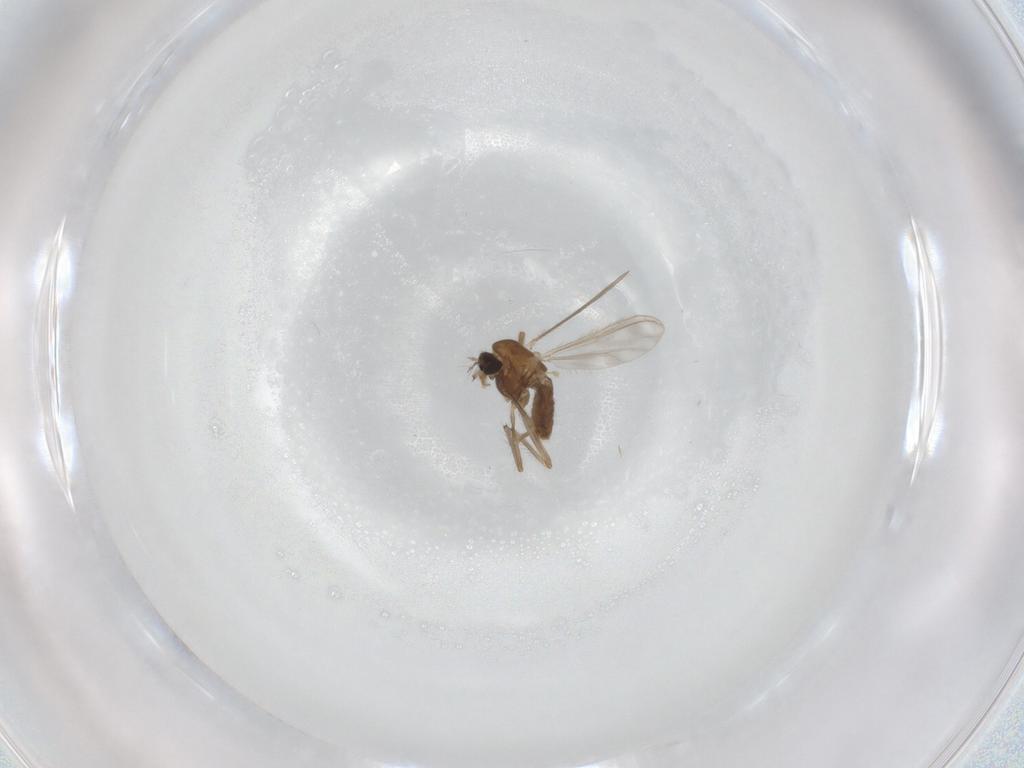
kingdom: Animalia
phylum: Arthropoda
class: Insecta
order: Diptera
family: Chironomidae
